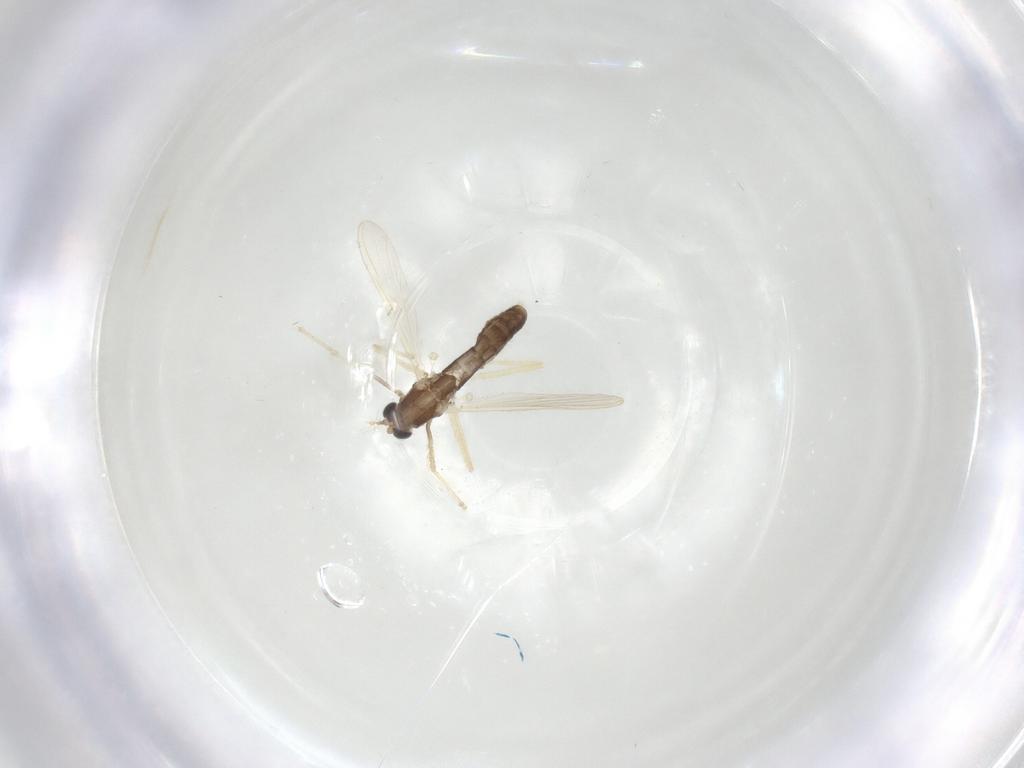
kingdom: Animalia
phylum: Arthropoda
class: Insecta
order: Diptera
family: Chironomidae
